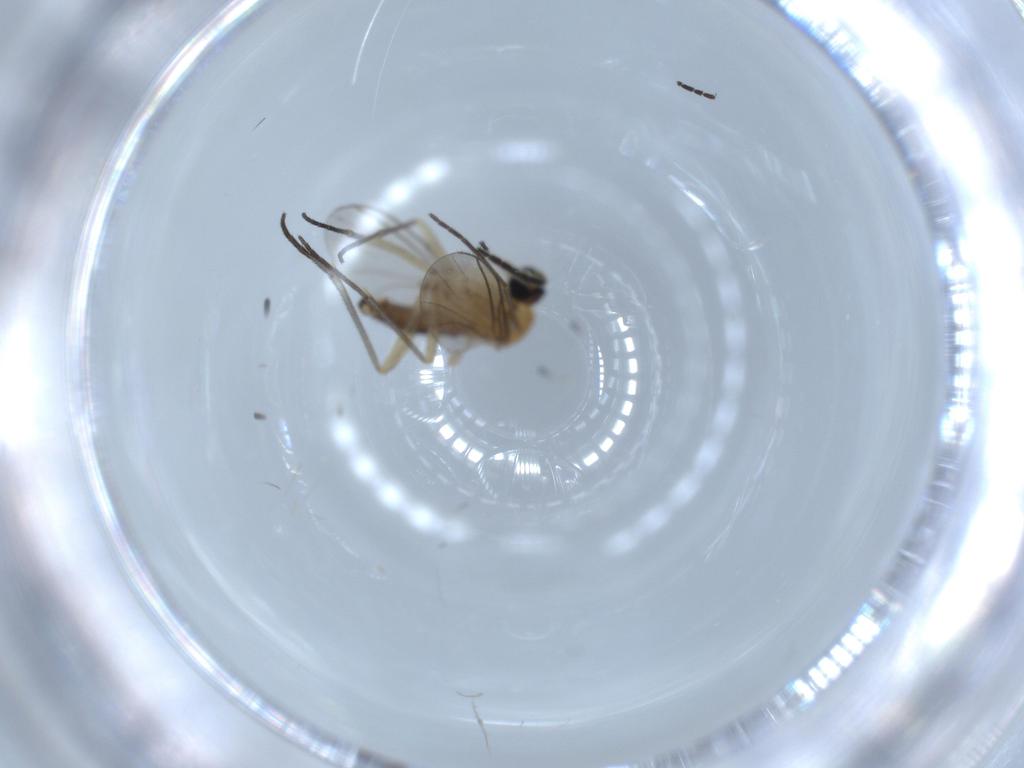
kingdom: Animalia
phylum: Arthropoda
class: Insecta
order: Diptera
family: Sciaridae
